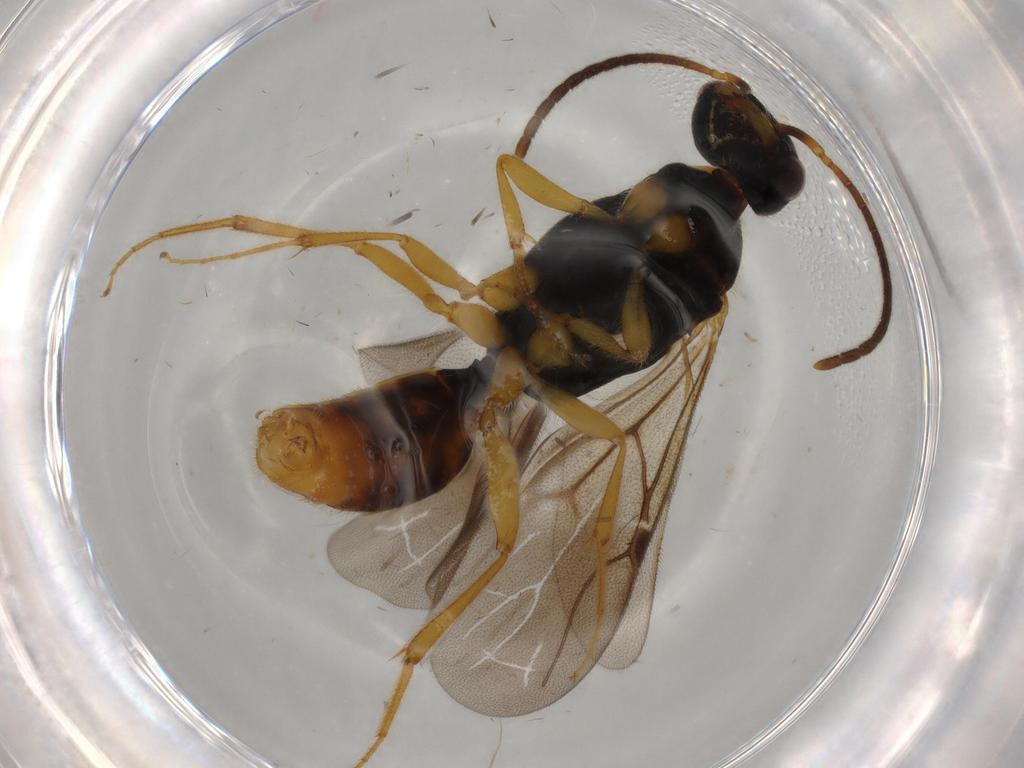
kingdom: Animalia
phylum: Arthropoda
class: Insecta
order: Hymenoptera
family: Bethylidae
